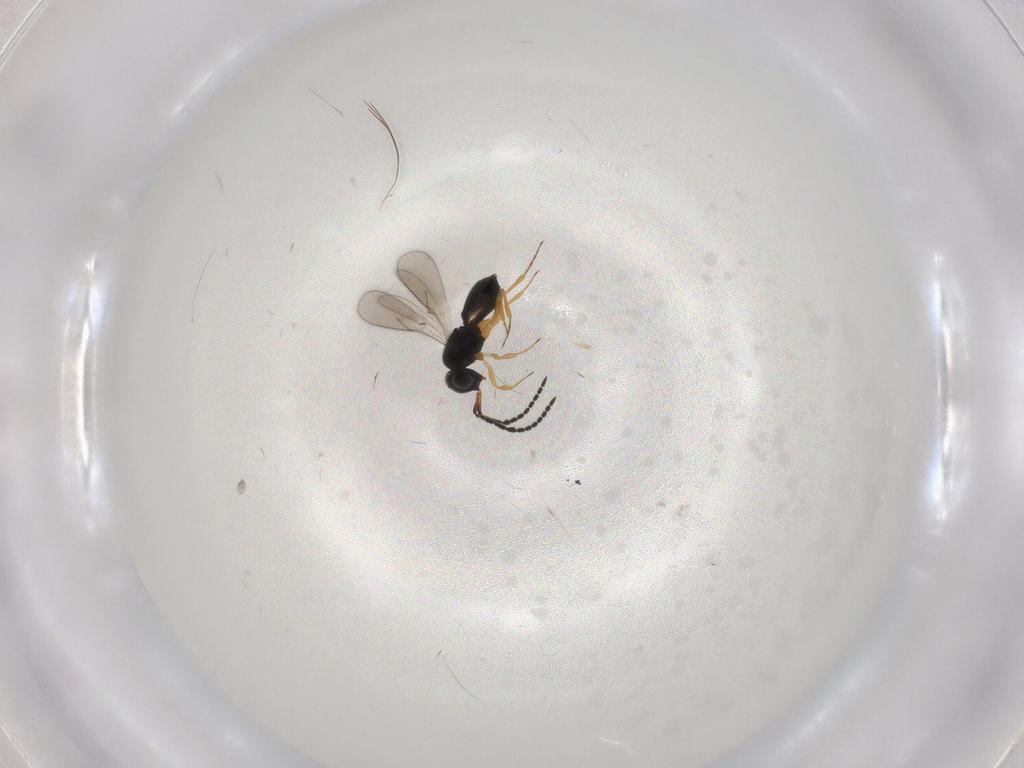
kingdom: Animalia
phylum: Arthropoda
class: Insecta
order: Hymenoptera
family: Scelionidae
